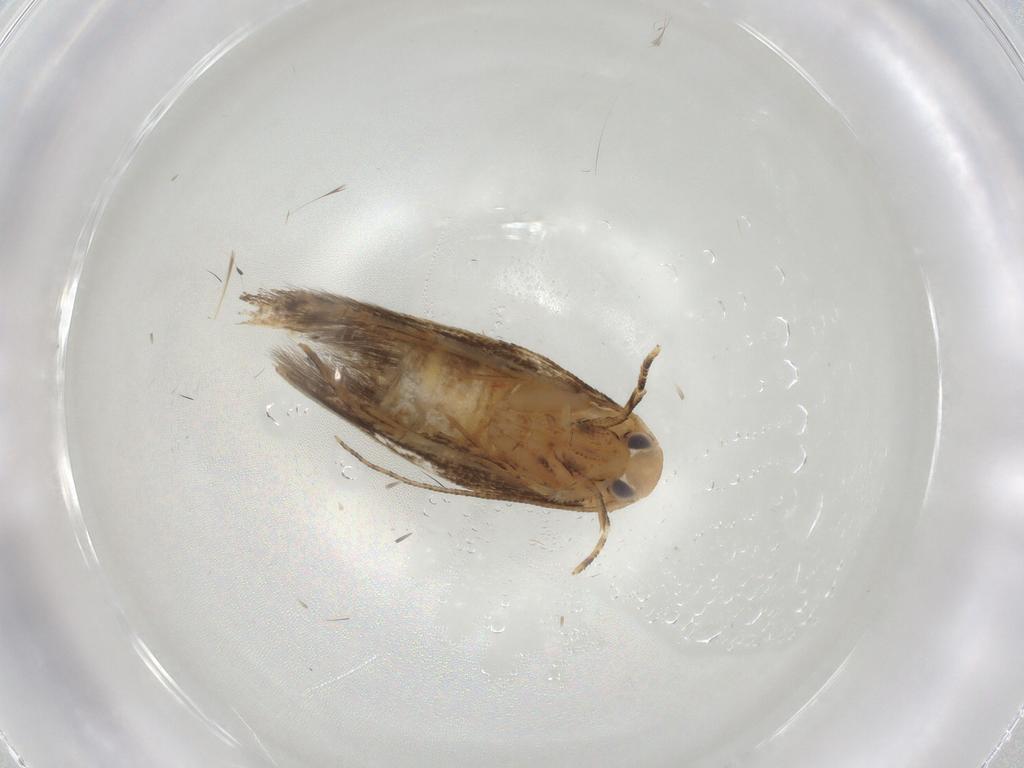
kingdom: Animalia
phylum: Arthropoda
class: Insecta
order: Lepidoptera
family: Momphidae
